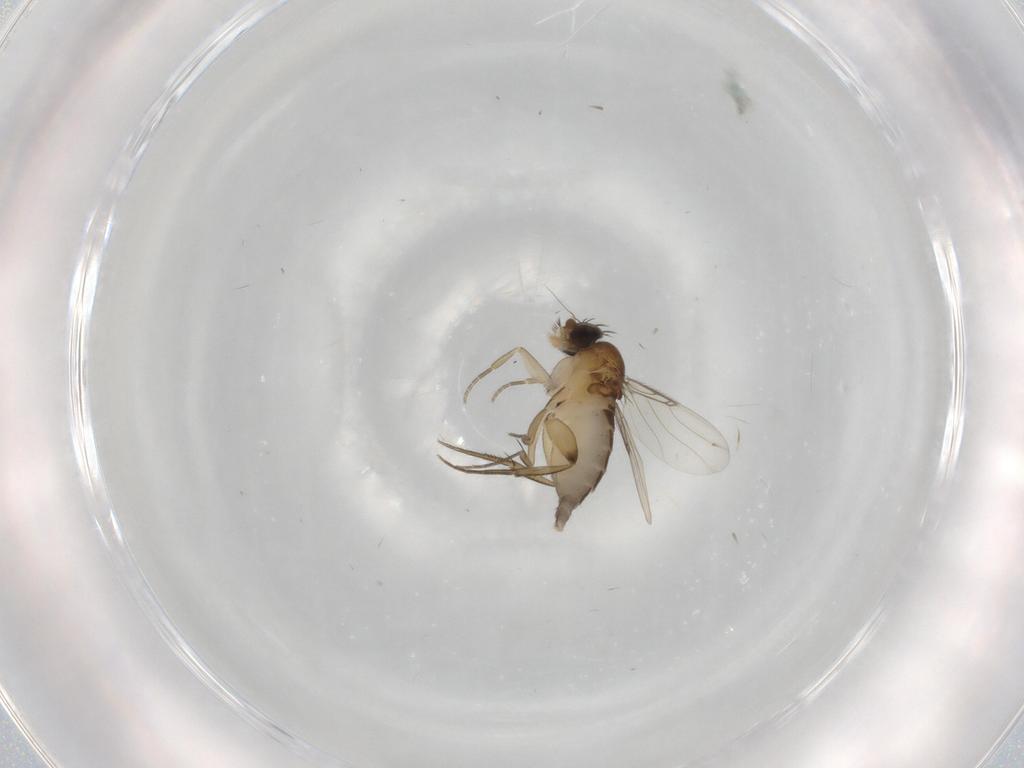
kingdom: Animalia
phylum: Arthropoda
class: Insecta
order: Diptera
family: Phoridae
